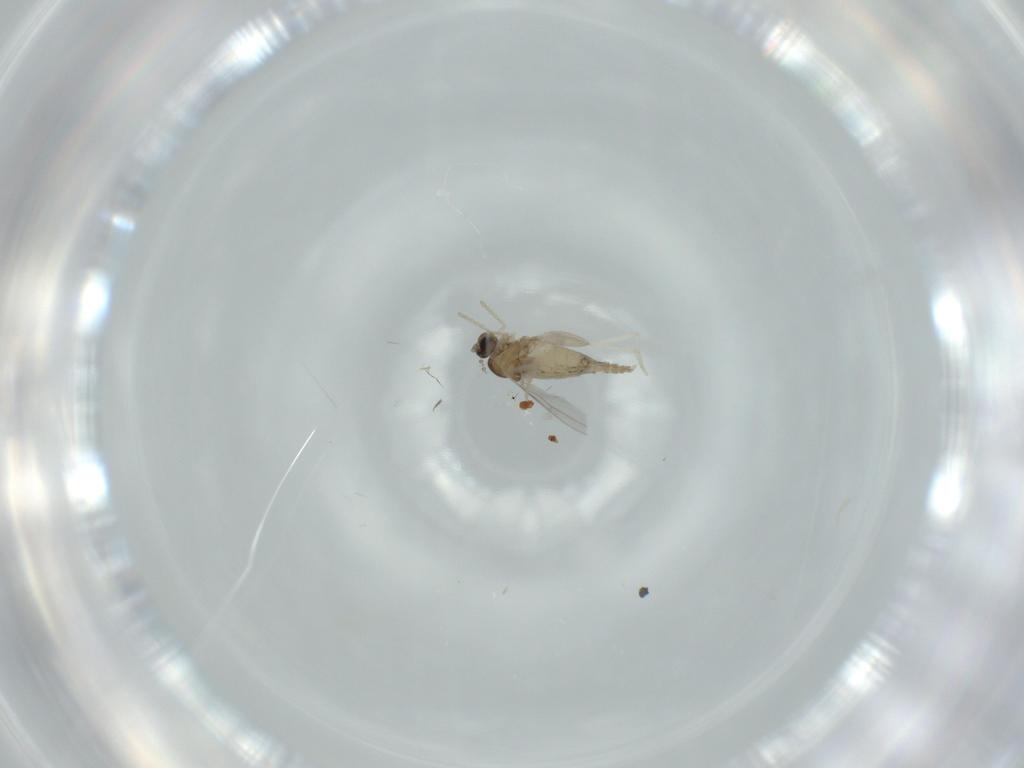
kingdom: Animalia
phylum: Arthropoda
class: Insecta
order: Diptera
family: Cecidomyiidae
